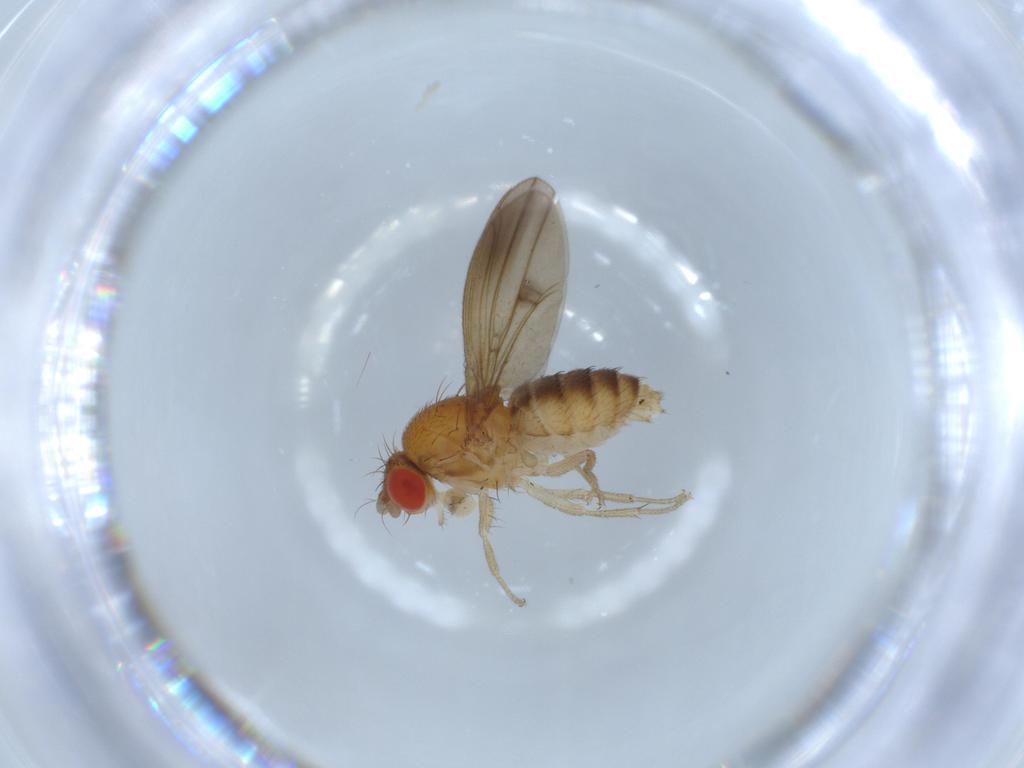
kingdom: Animalia
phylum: Arthropoda
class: Insecta
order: Diptera
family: Drosophilidae
